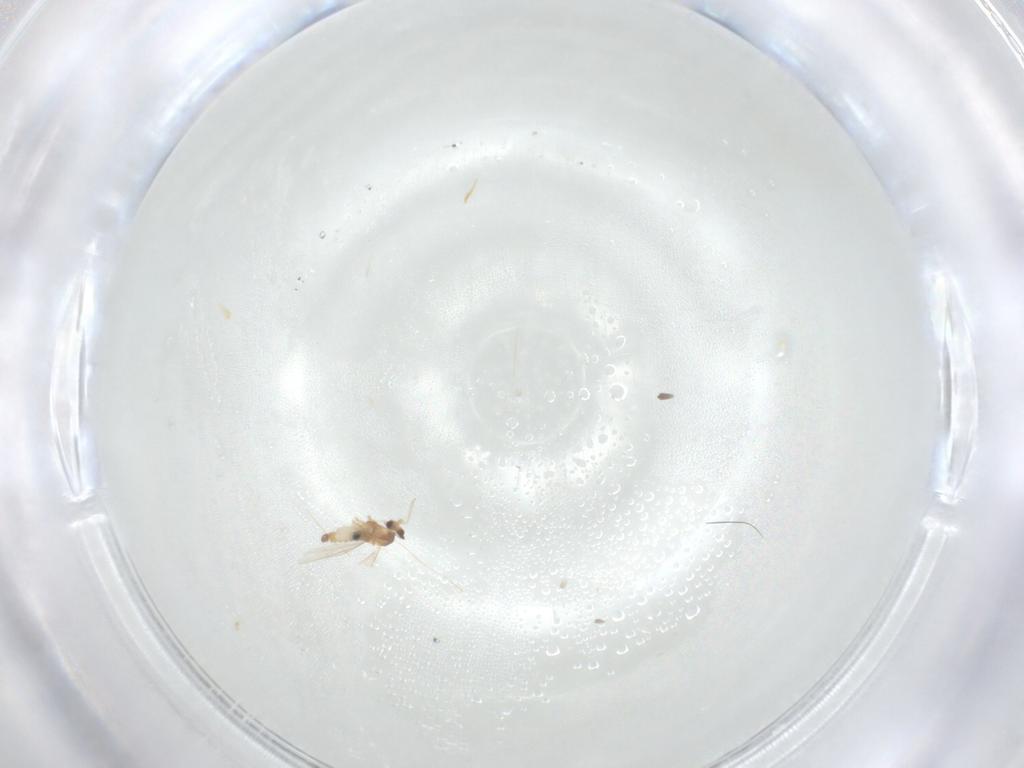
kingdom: Animalia
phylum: Arthropoda
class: Insecta
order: Diptera
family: Cecidomyiidae
